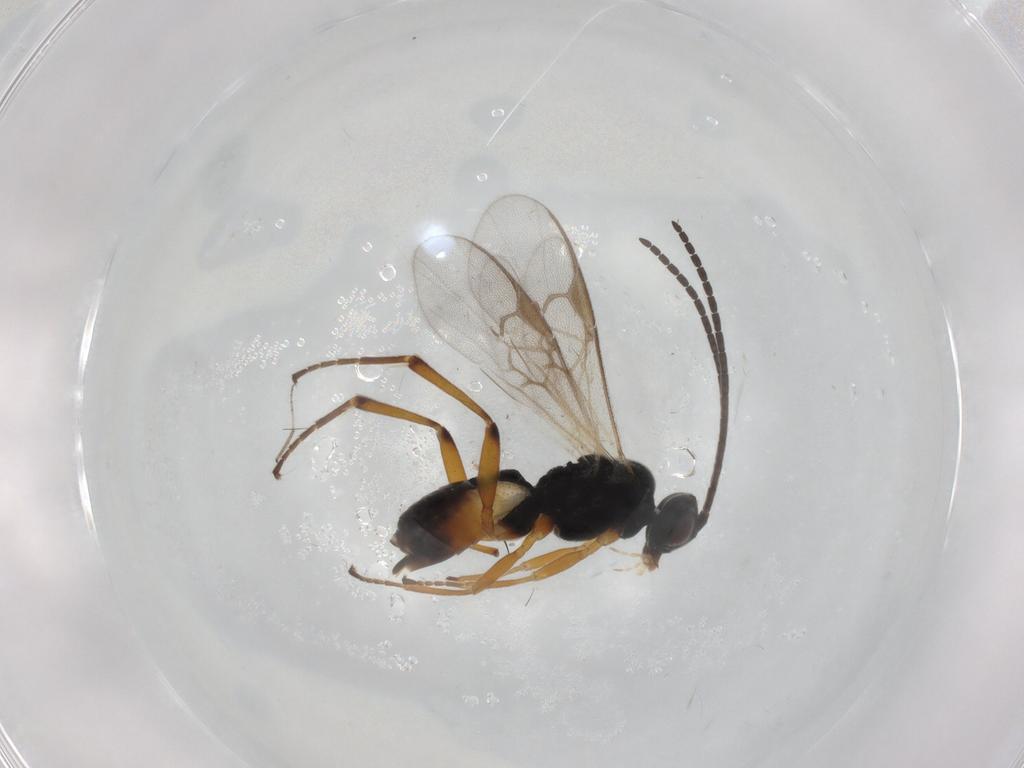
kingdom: Animalia
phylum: Arthropoda
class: Insecta
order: Hymenoptera
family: Braconidae
